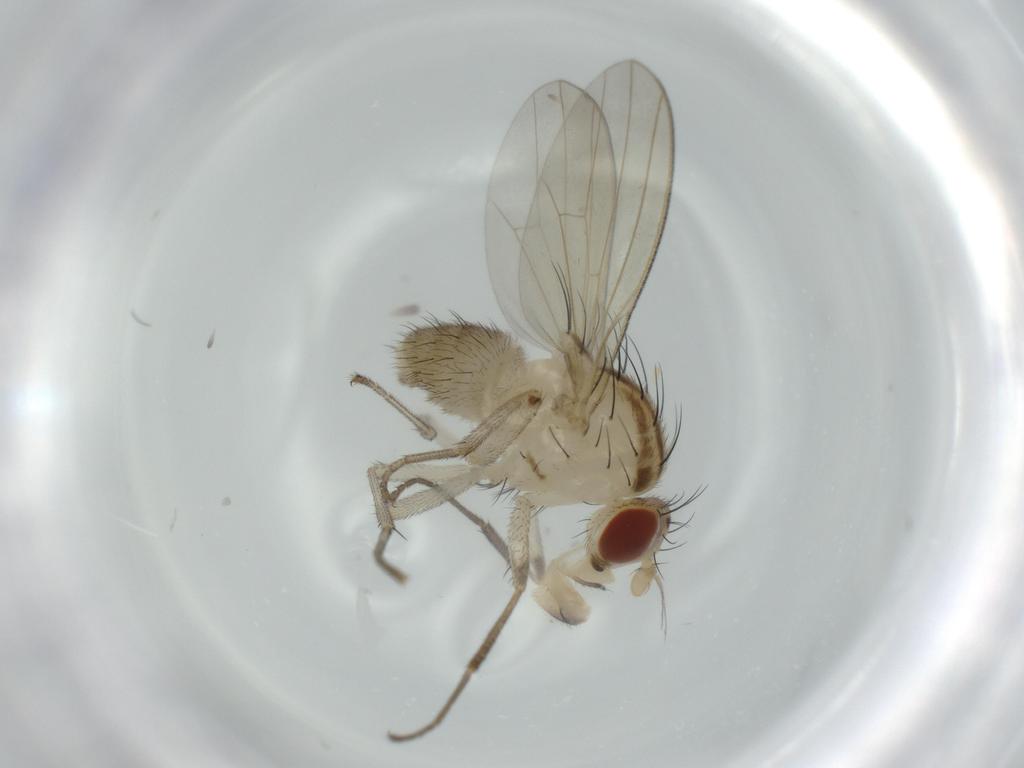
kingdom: Animalia
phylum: Arthropoda
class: Insecta
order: Diptera
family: Lauxaniidae
